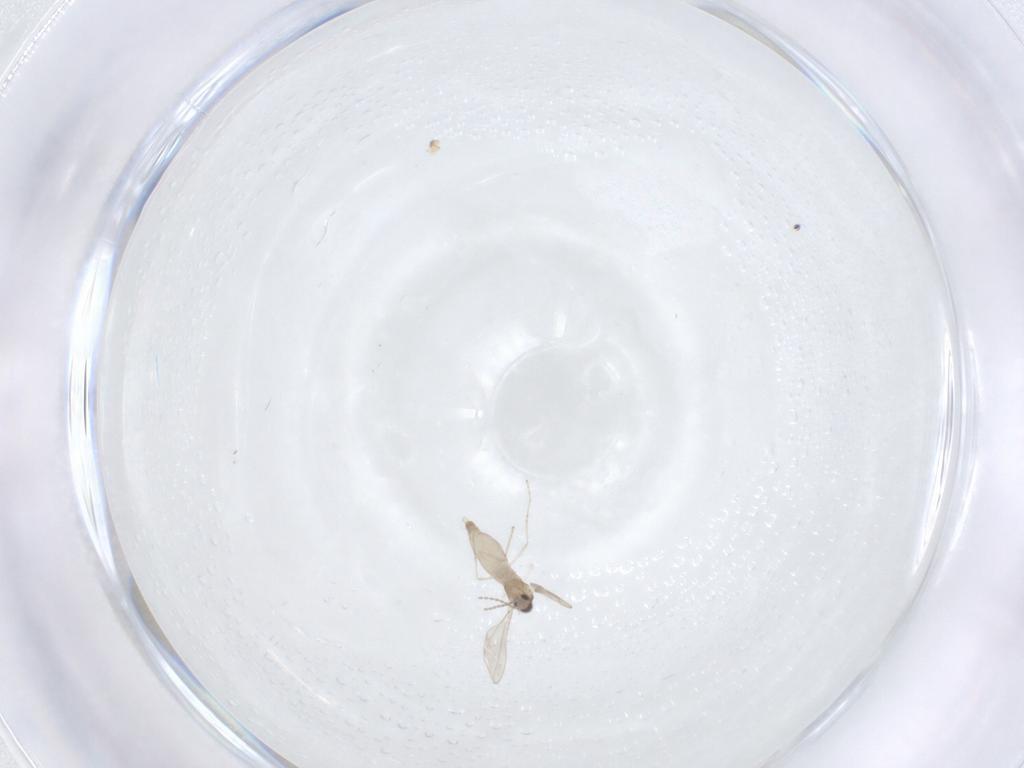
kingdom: Animalia
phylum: Arthropoda
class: Insecta
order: Diptera
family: Cecidomyiidae
